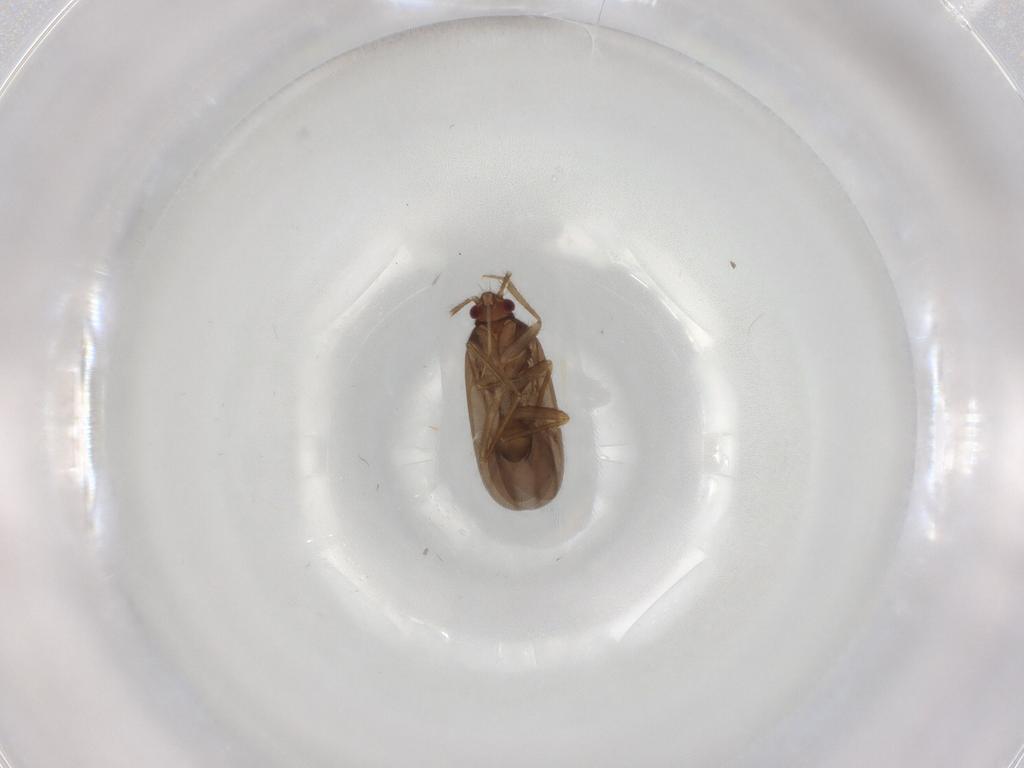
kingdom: Animalia
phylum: Arthropoda
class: Insecta
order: Hemiptera
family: Ceratocombidae
